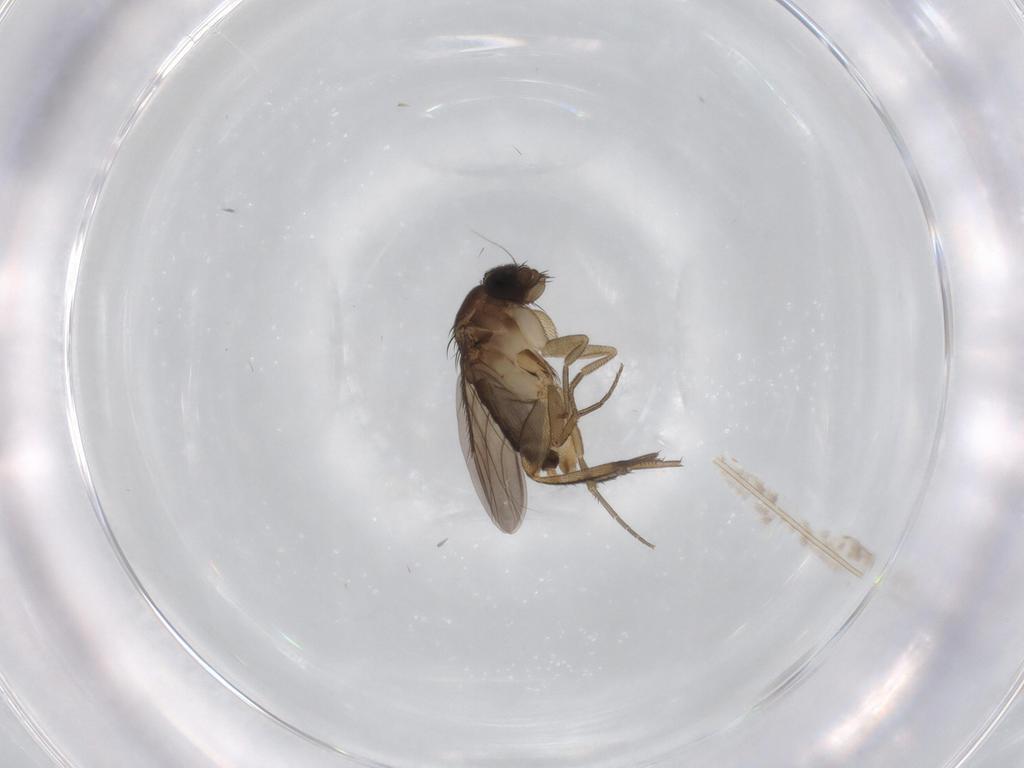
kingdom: Animalia
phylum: Arthropoda
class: Insecta
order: Diptera
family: Phoridae
